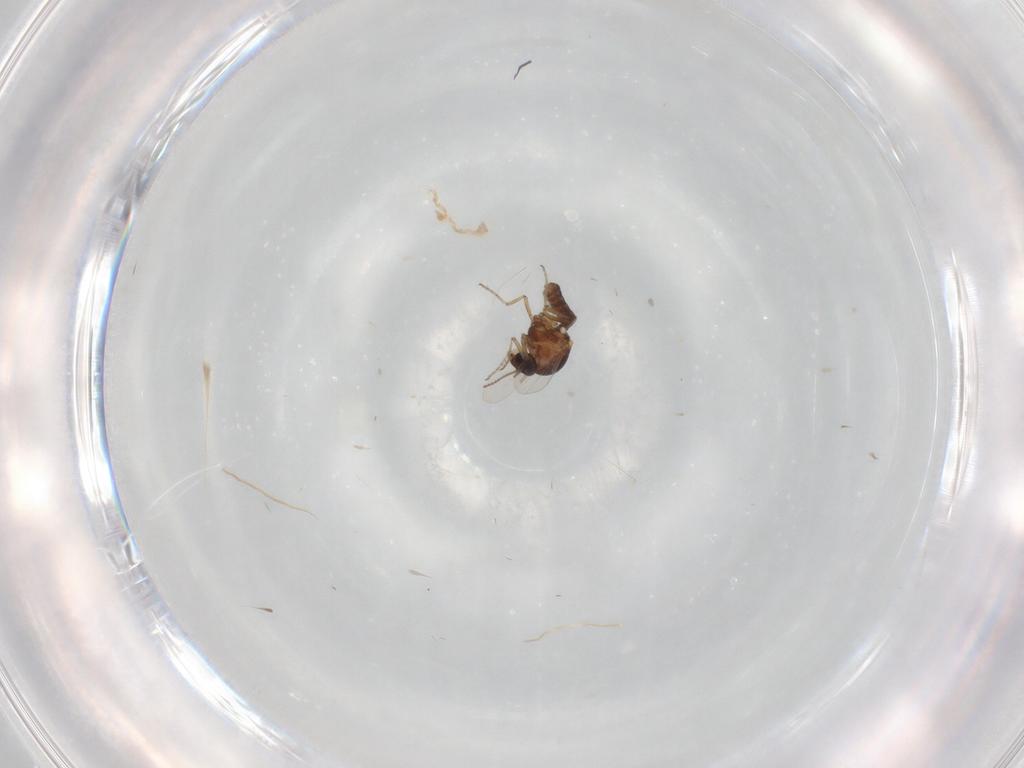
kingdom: Animalia
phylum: Arthropoda
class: Insecta
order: Diptera
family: Ceratopogonidae
